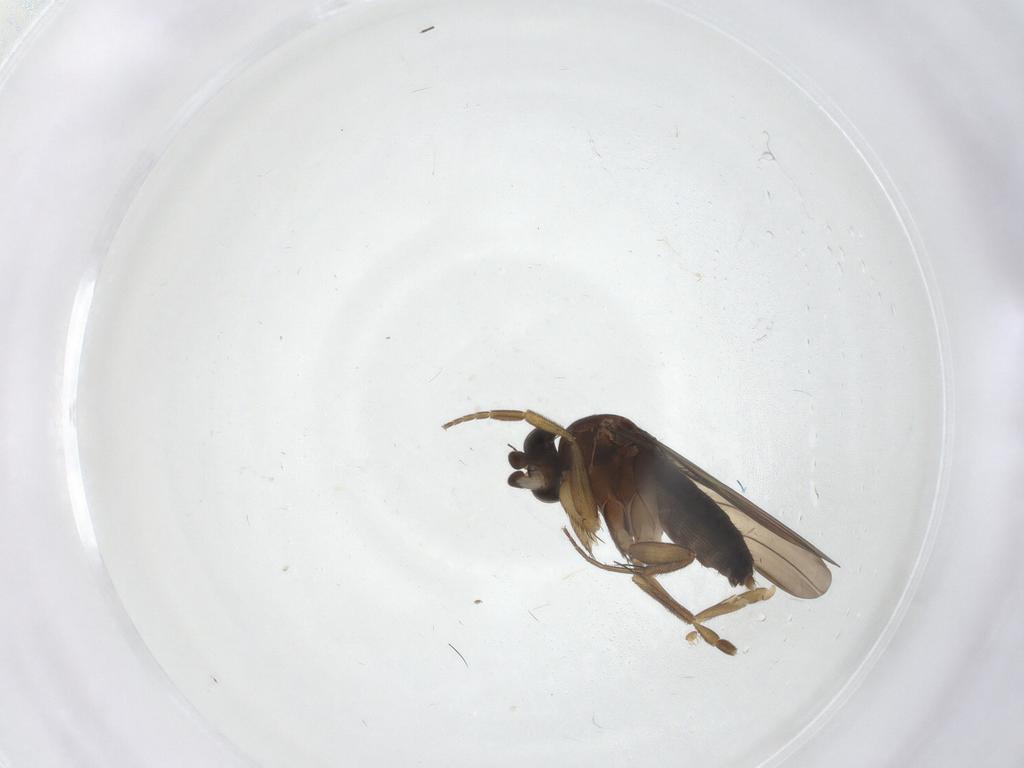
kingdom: Animalia
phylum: Arthropoda
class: Insecta
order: Diptera
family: Phoridae
